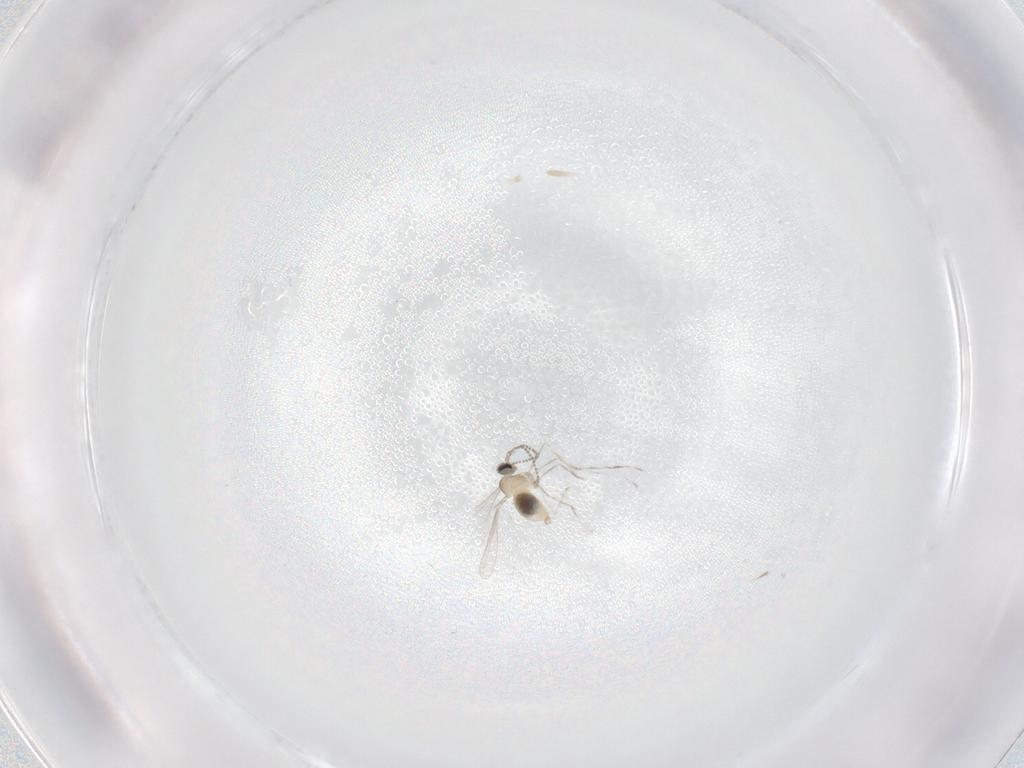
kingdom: Animalia
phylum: Arthropoda
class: Insecta
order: Diptera
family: Cecidomyiidae
